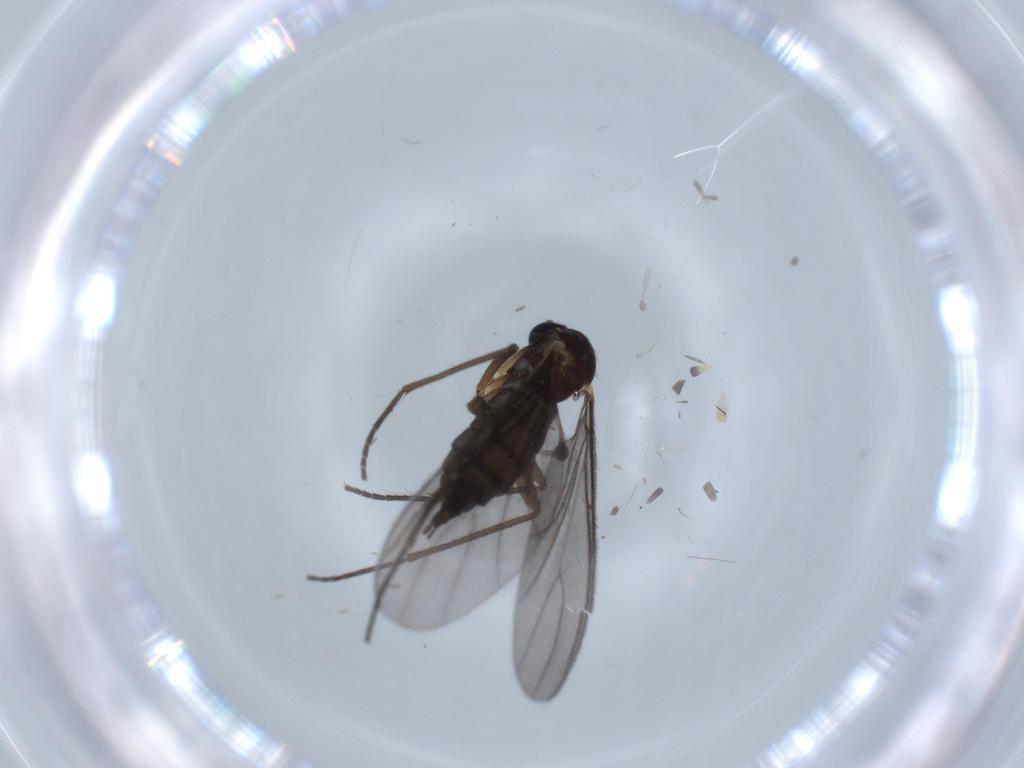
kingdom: Animalia
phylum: Arthropoda
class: Insecta
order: Diptera
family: Sciaridae
